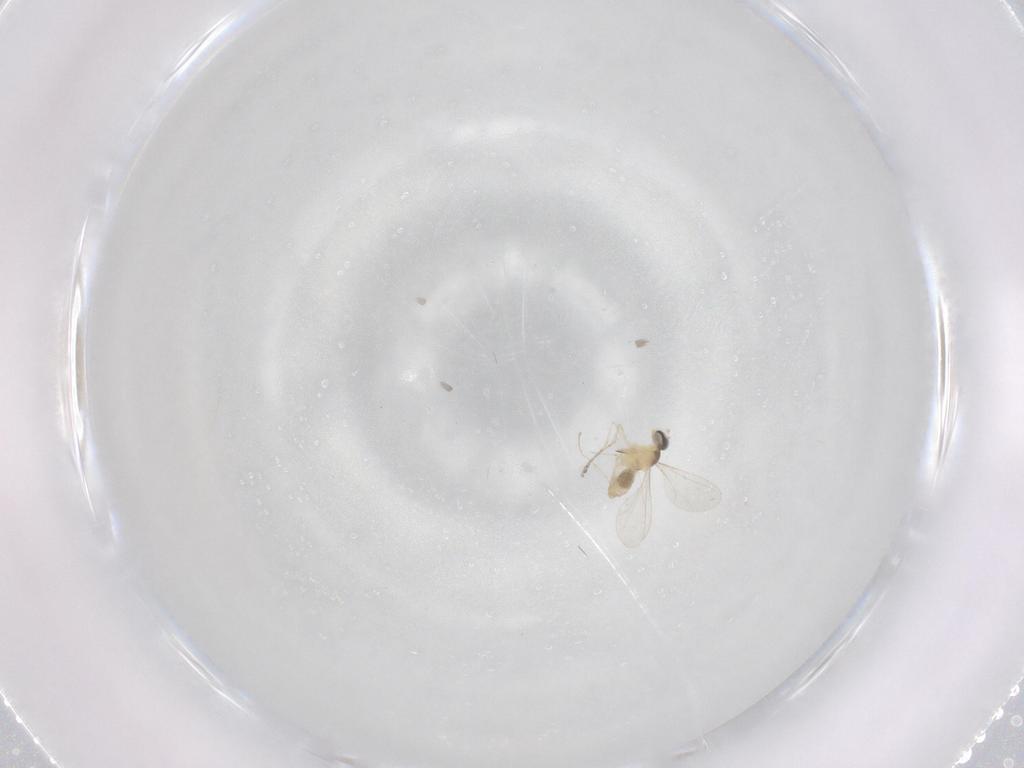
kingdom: Animalia
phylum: Arthropoda
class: Insecta
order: Diptera
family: Cecidomyiidae
